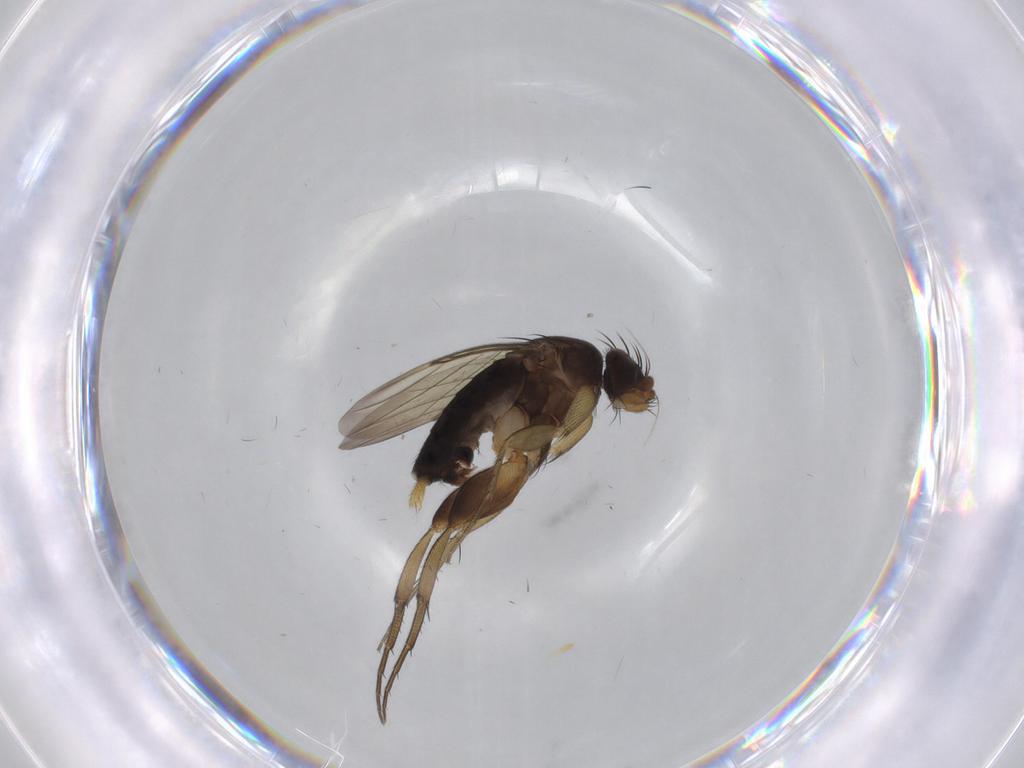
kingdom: Animalia
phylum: Arthropoda
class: Insecta
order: Diptera
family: Phoridae
